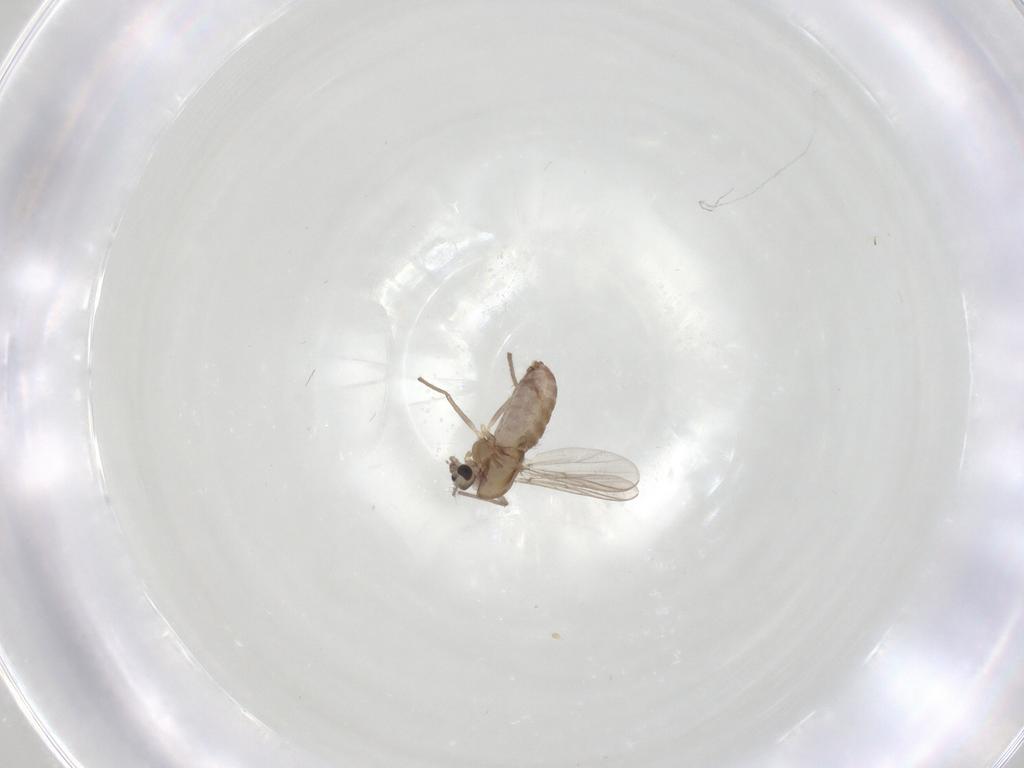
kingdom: Animalia
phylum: Arthropoda
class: Insecta
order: Diptera
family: Chironomidae
